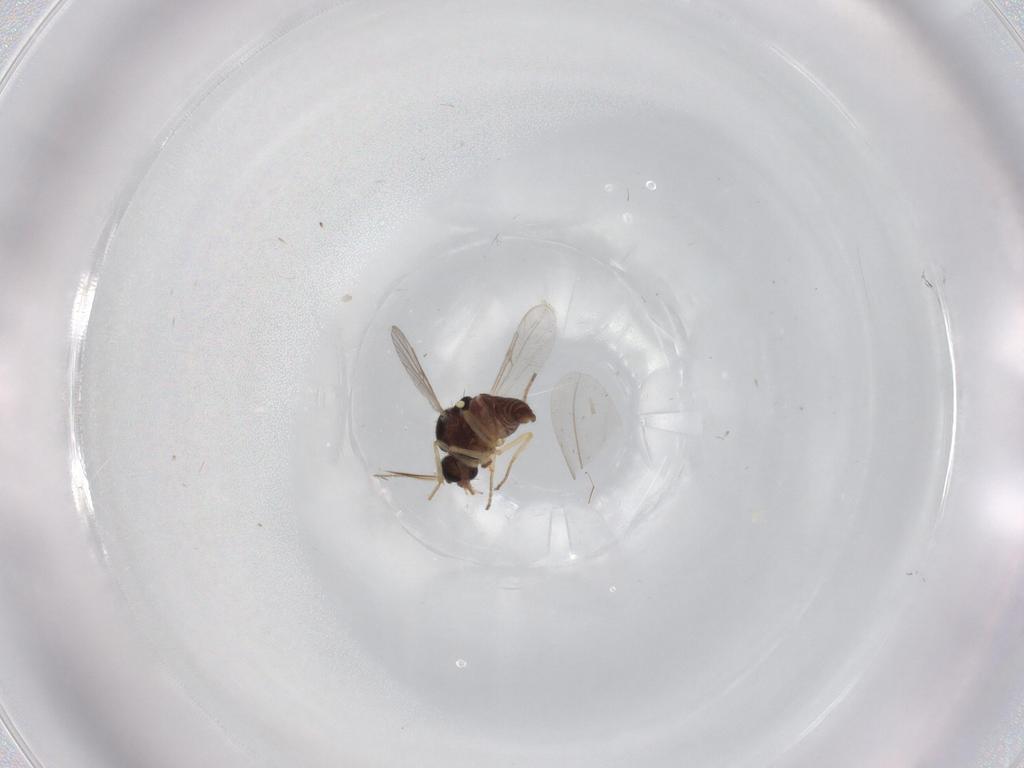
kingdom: Animalia
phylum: Arthropoda
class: Insecta
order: Diptera
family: Ceratopogonidae
